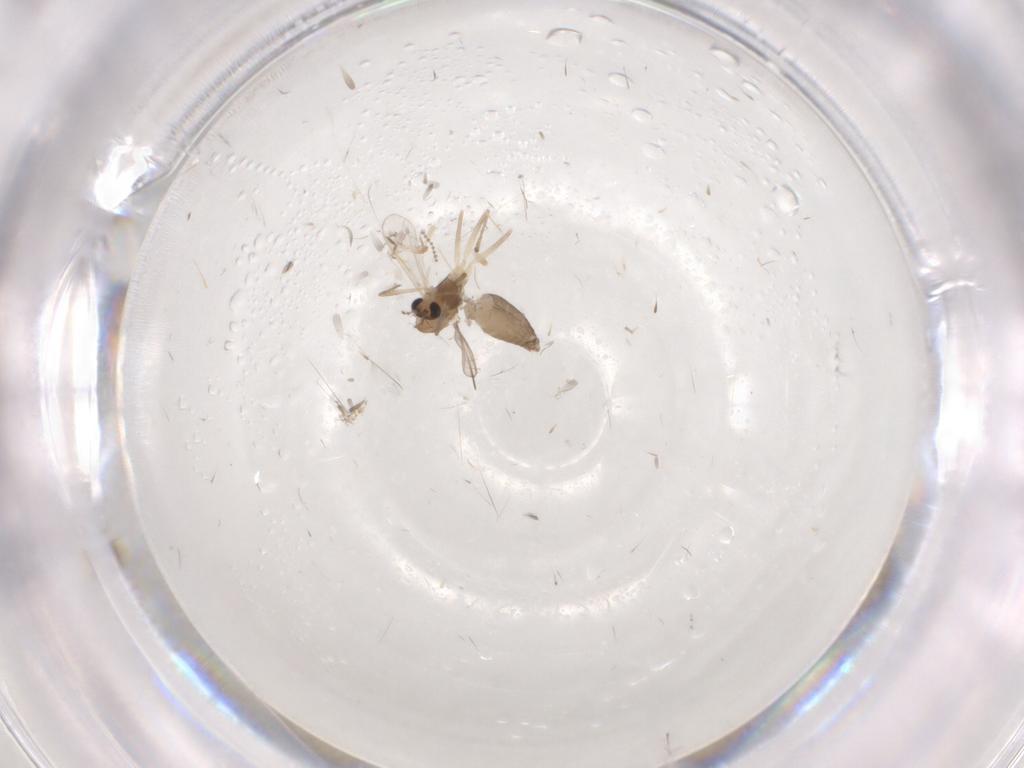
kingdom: Animalia
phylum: Arthropoda
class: Insecta
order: Diptera
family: Chironomidae
